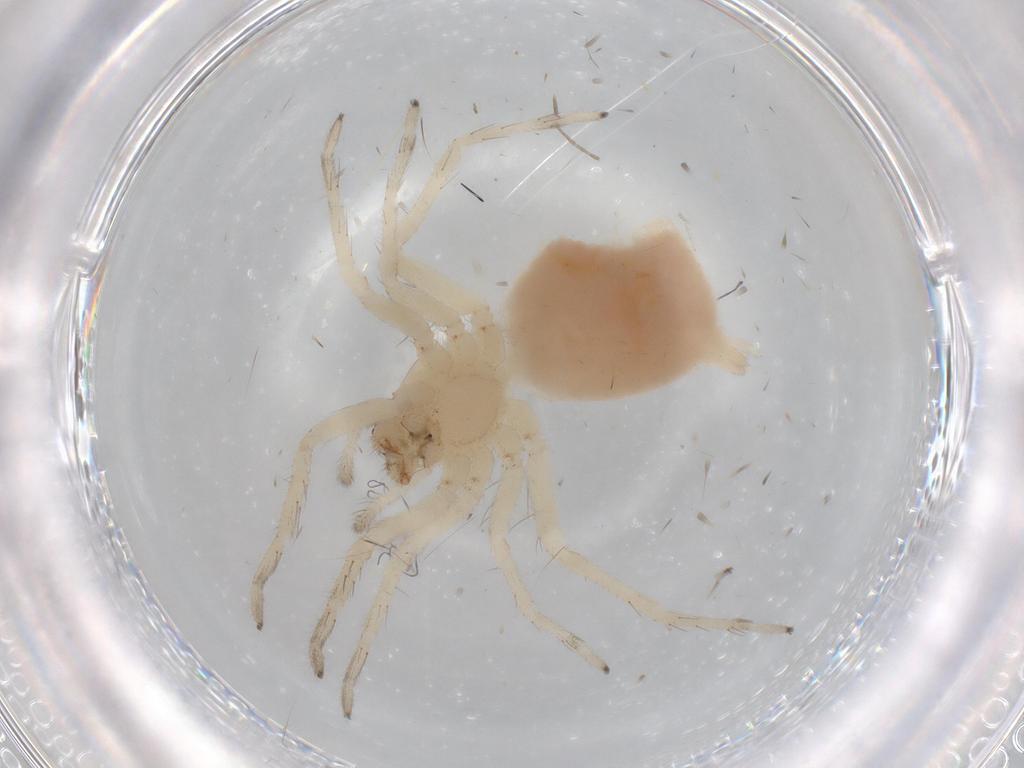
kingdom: Animalia
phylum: Arthropoda
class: Arachnida
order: Araneae
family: Clubionidae
